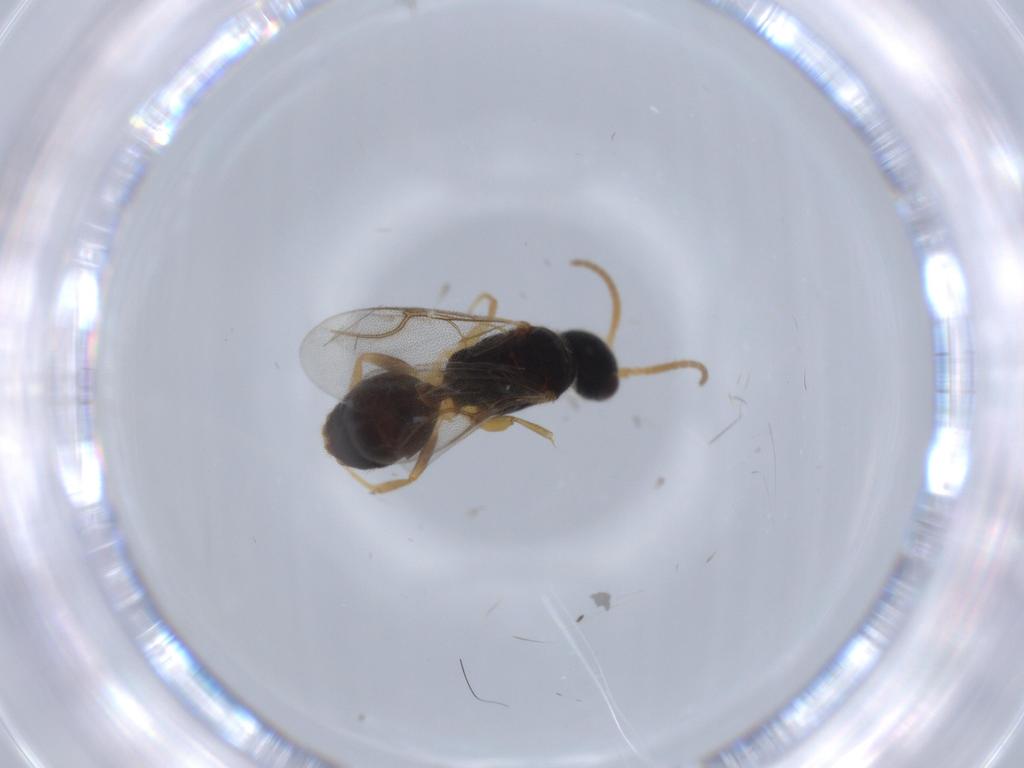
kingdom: Animalia
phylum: Arthropoda
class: Insecta
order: Hymenoptera
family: Bethylidae
